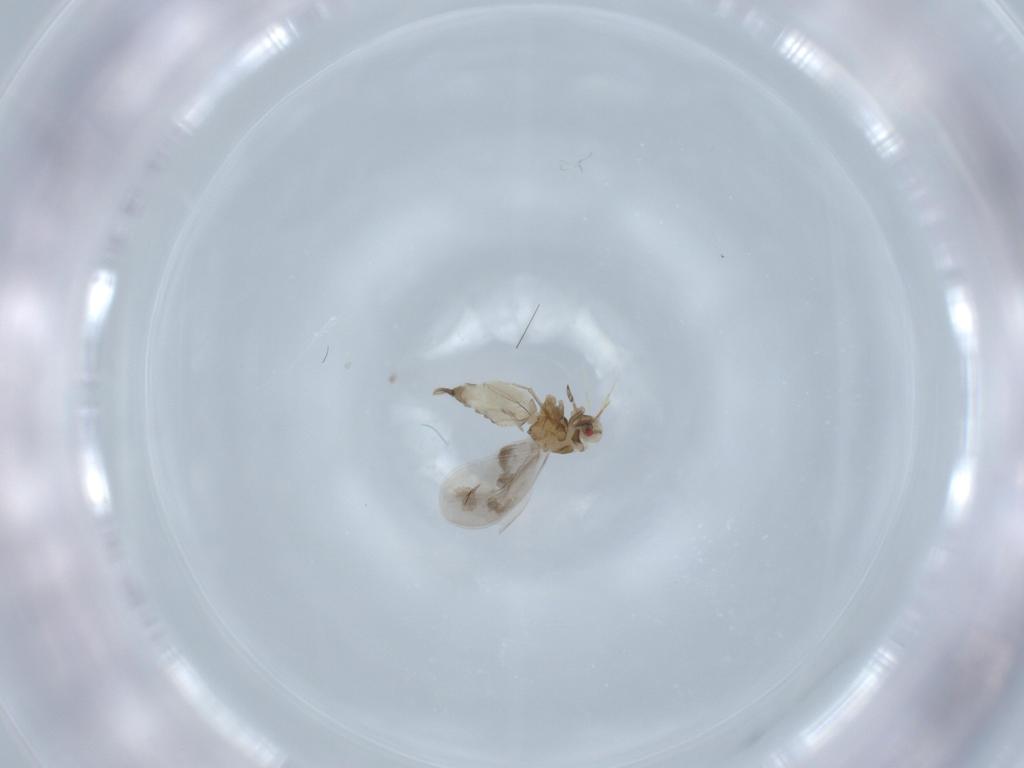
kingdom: Animalia
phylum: Arthropoda
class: Insecta
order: Hemiptera
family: Aleyrodidae
